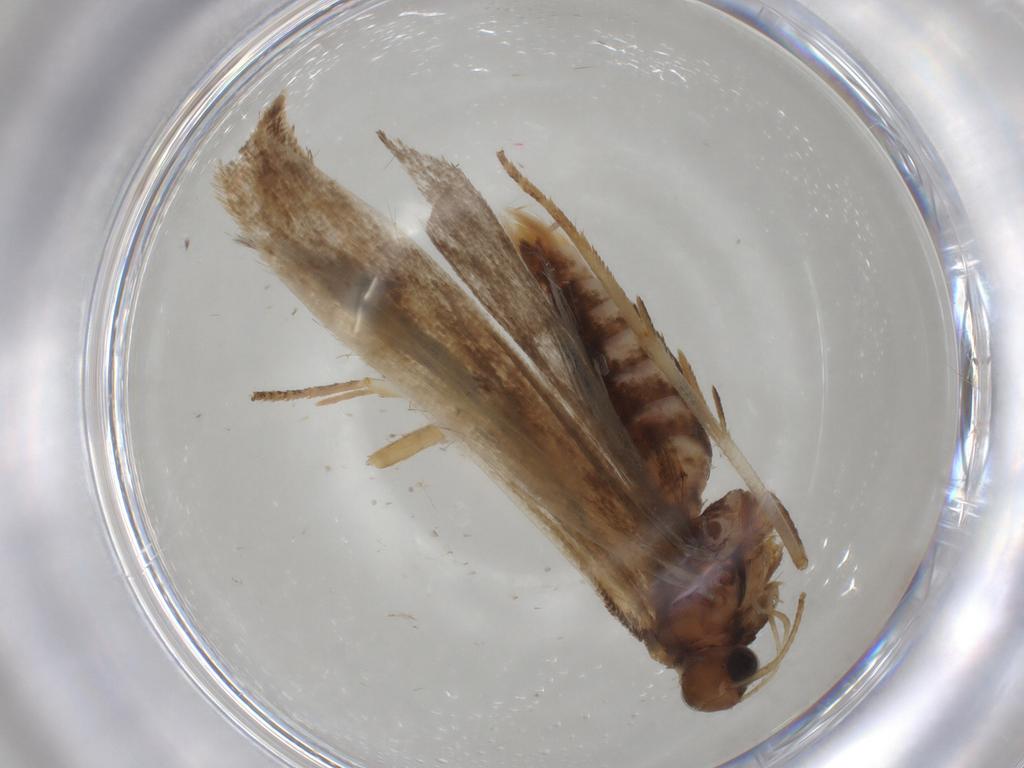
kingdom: Animalia
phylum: Arthropoda
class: Insecta
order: Lepidoptera
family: Gelechiidae
